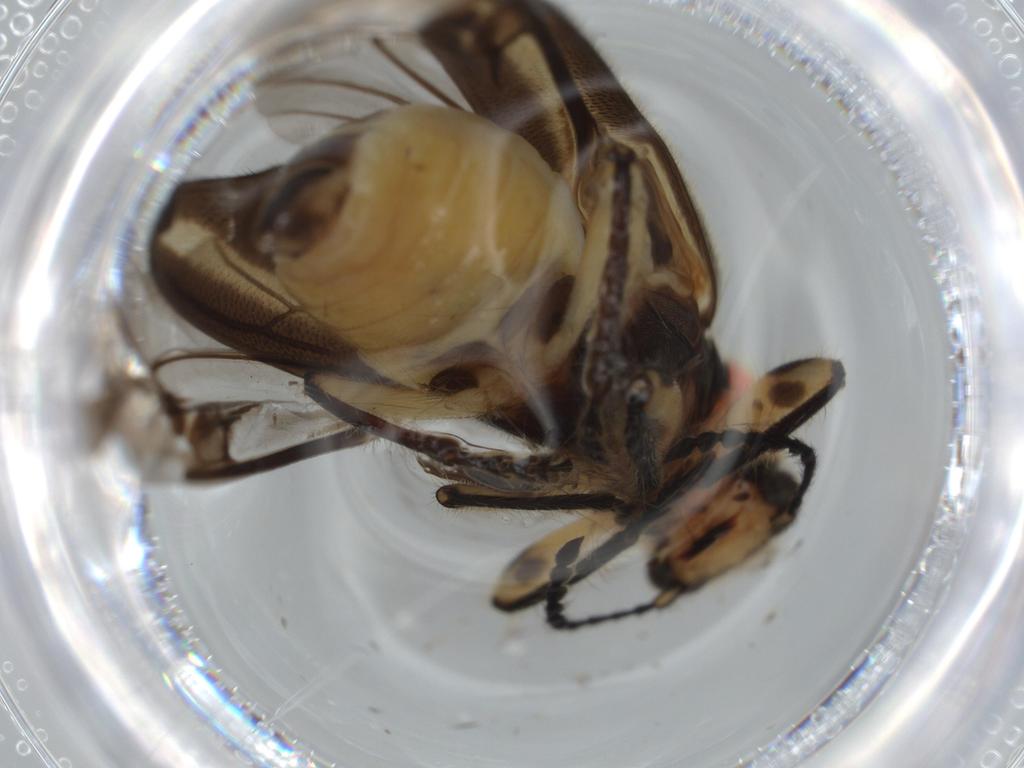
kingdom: Animalia
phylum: Arthropoda
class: Insecta
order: Coleoptera
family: Cleridae
